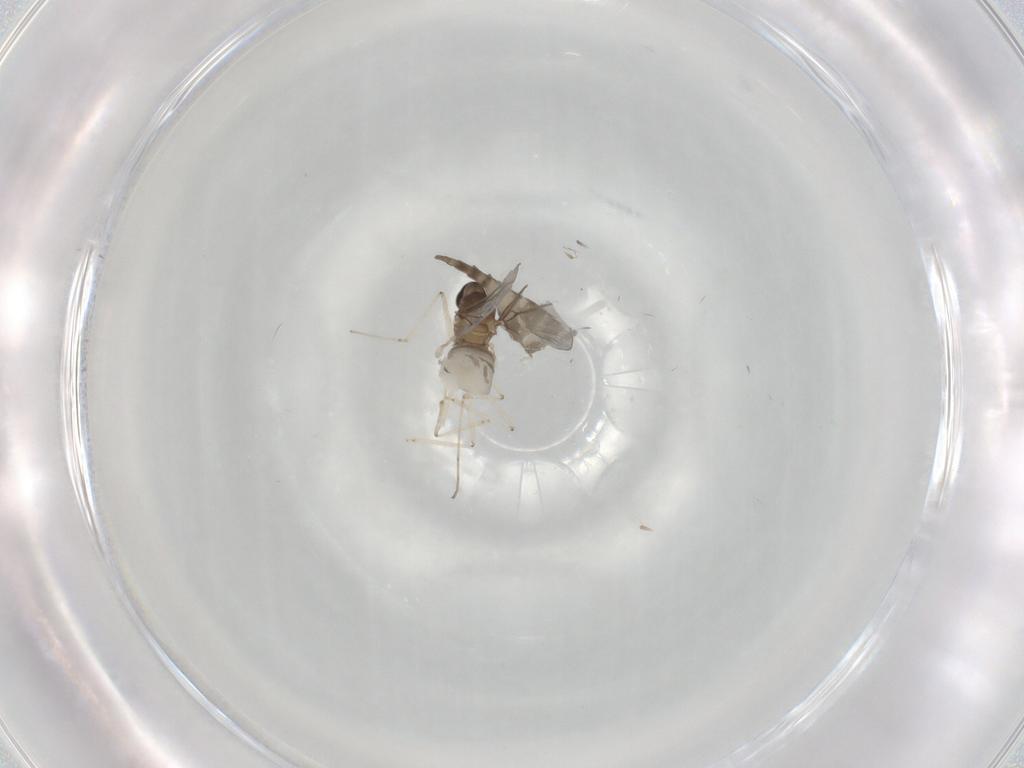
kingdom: Animalia
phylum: Arthropoda
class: Insecta
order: Diptera
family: Cecidomyiidae
